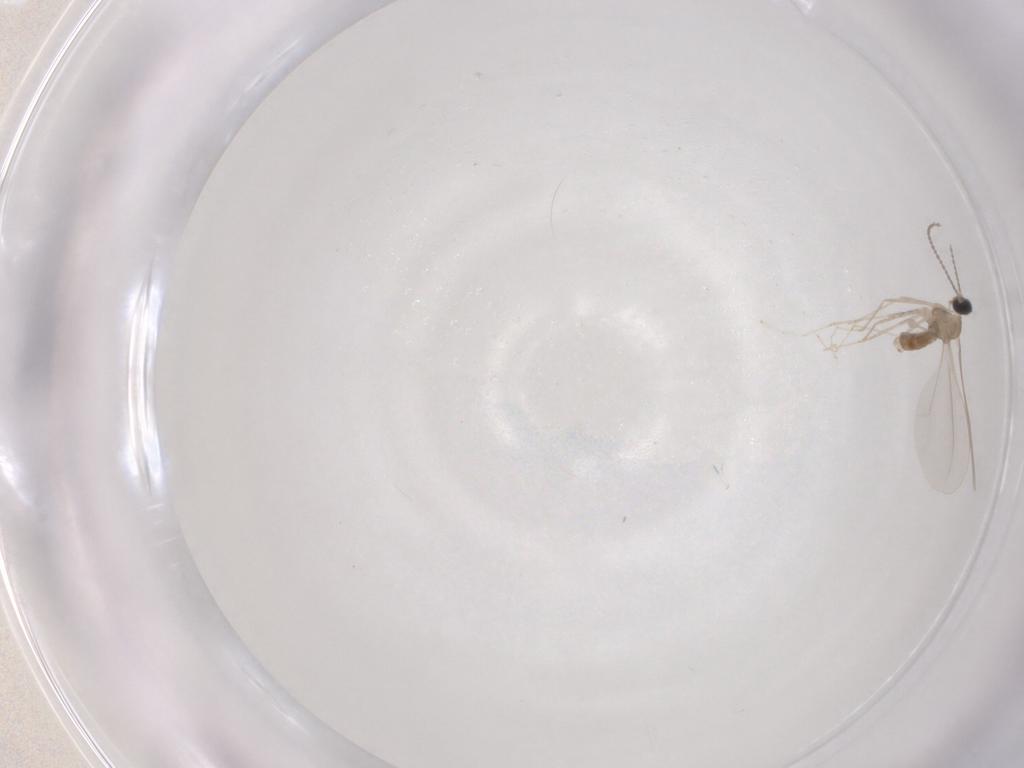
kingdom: Animalia
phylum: Arthropoda
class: Insecta
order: Diptera
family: Cecidomyiidae
